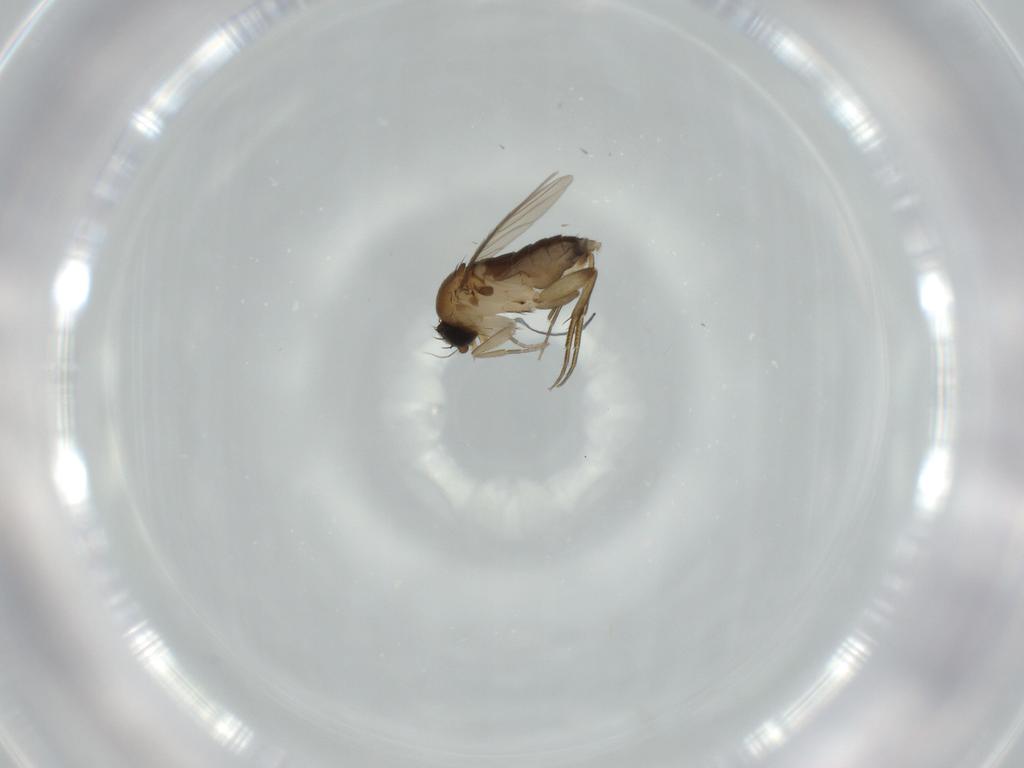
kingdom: Animalia
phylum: Arthropoda
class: Insecta
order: Diptera
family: Phoridae
